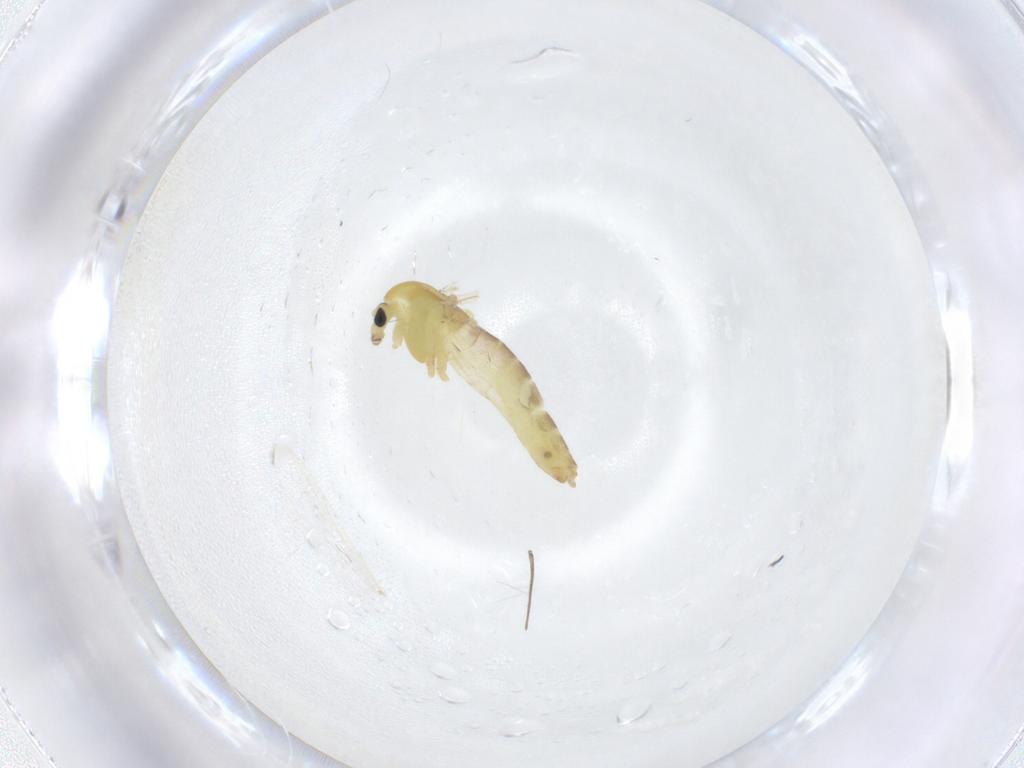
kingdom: Animalia
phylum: Arthropoda
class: Insecta
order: Diptera
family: Chironomidae
